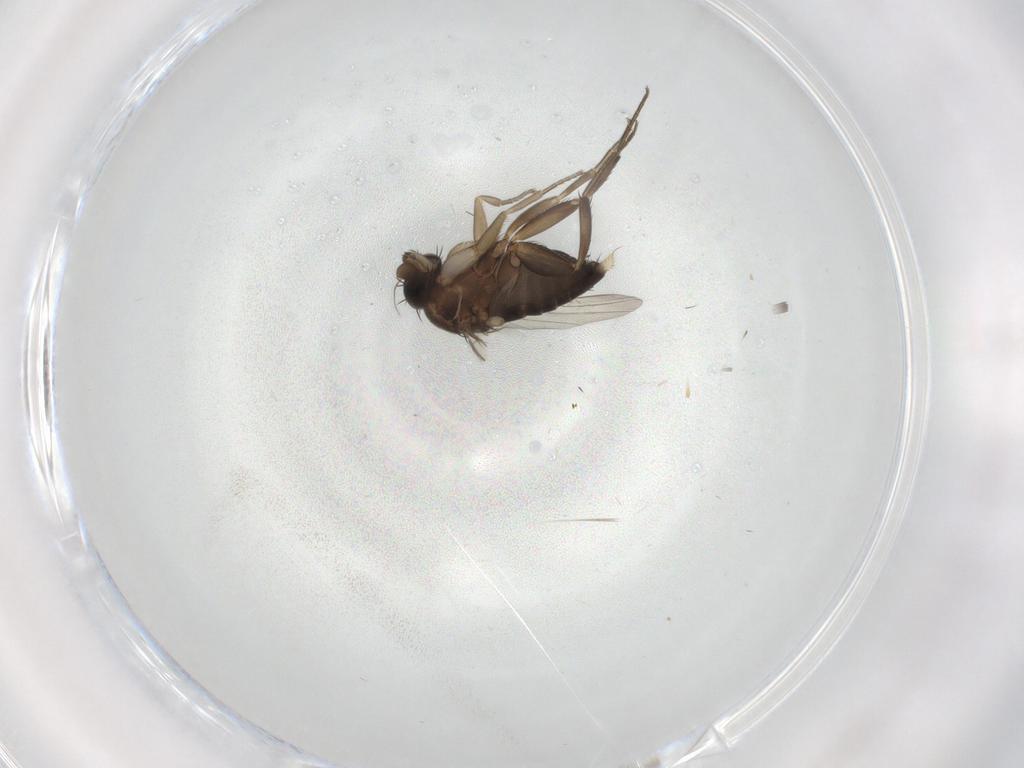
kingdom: Animalia
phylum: Arthropoda
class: Insecta
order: Diptera
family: Phoridae
